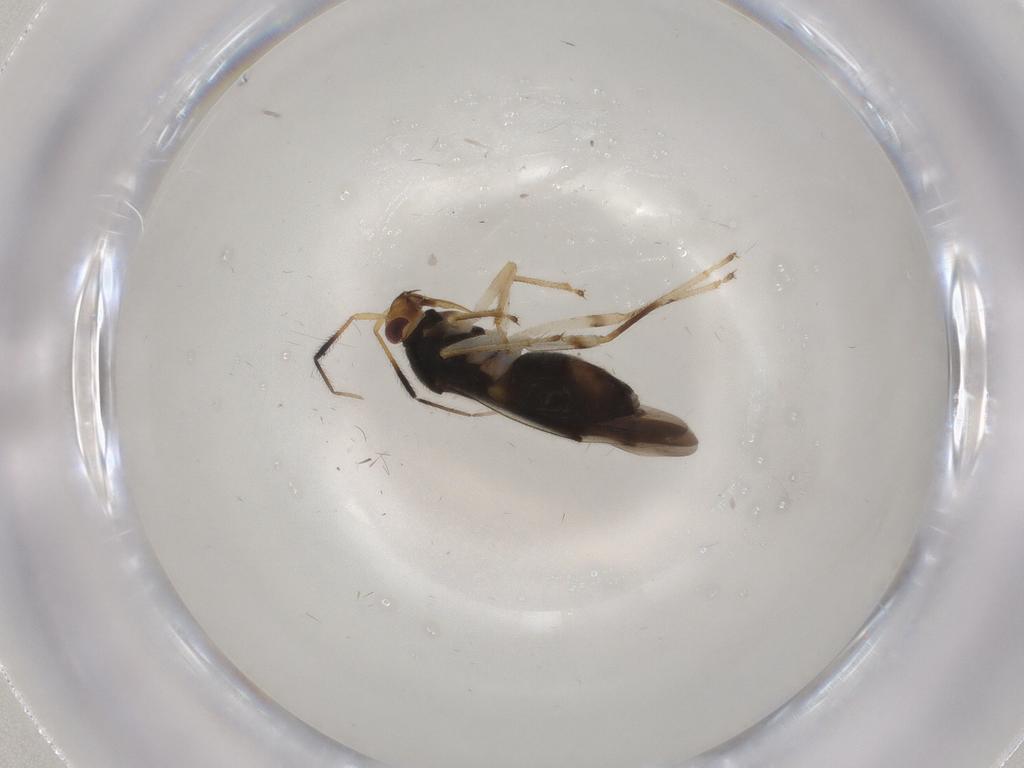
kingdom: Animalia
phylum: Arthropoda
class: Insecta
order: Hemiptera
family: Miridae
